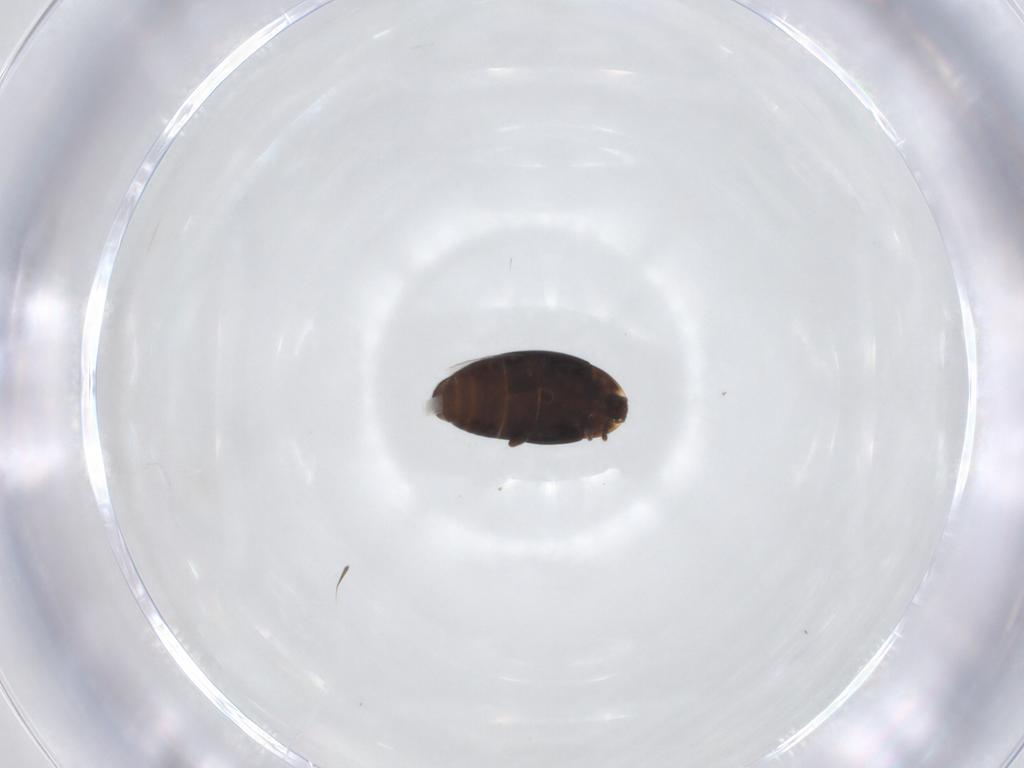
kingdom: Animalia
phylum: Arthropoda
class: Insecta
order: Coleoptera
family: Corylophidae
